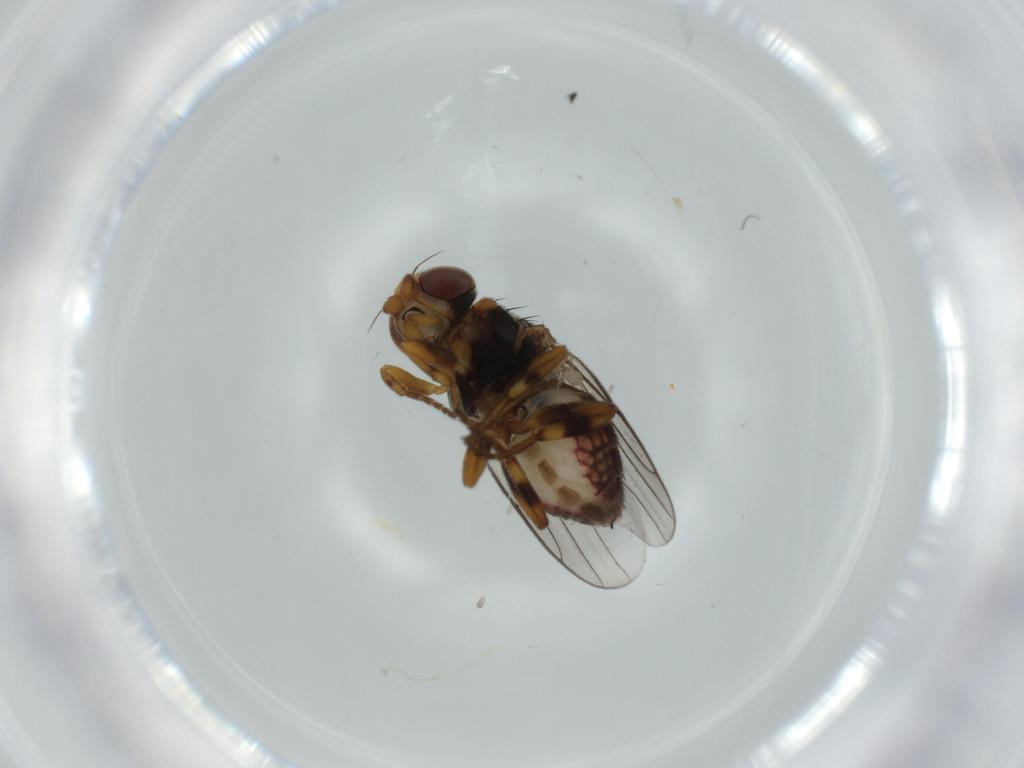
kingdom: Animalia
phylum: Arthropoda
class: Insecta
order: Diptera
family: Chloropidae
